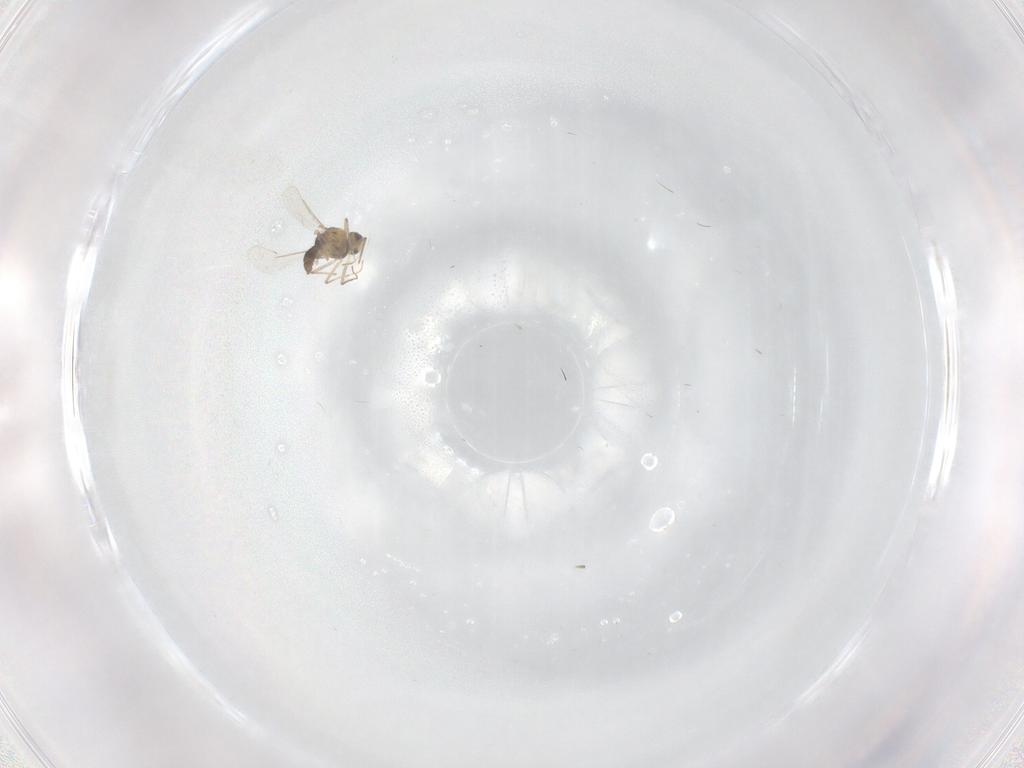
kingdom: Animalia
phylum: Arthropoda
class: Insecta
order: Diptera
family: Chironomidae
